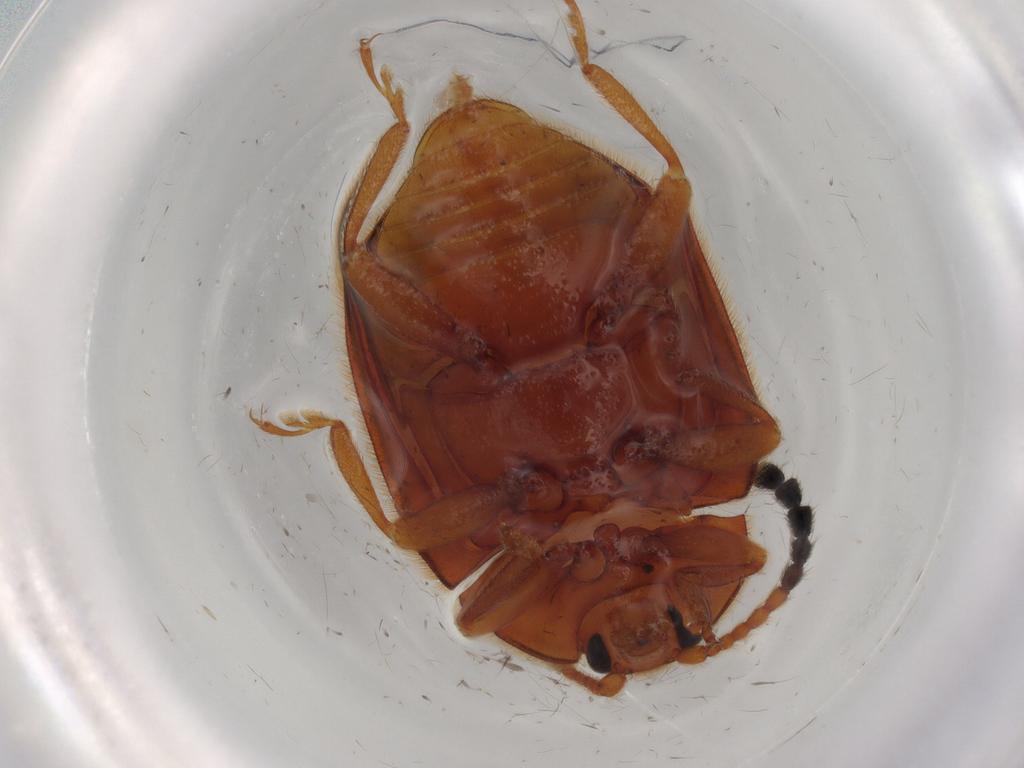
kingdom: Animalia
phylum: Arthropoda
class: Insecta
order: Coleoptera
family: Endomychidae
